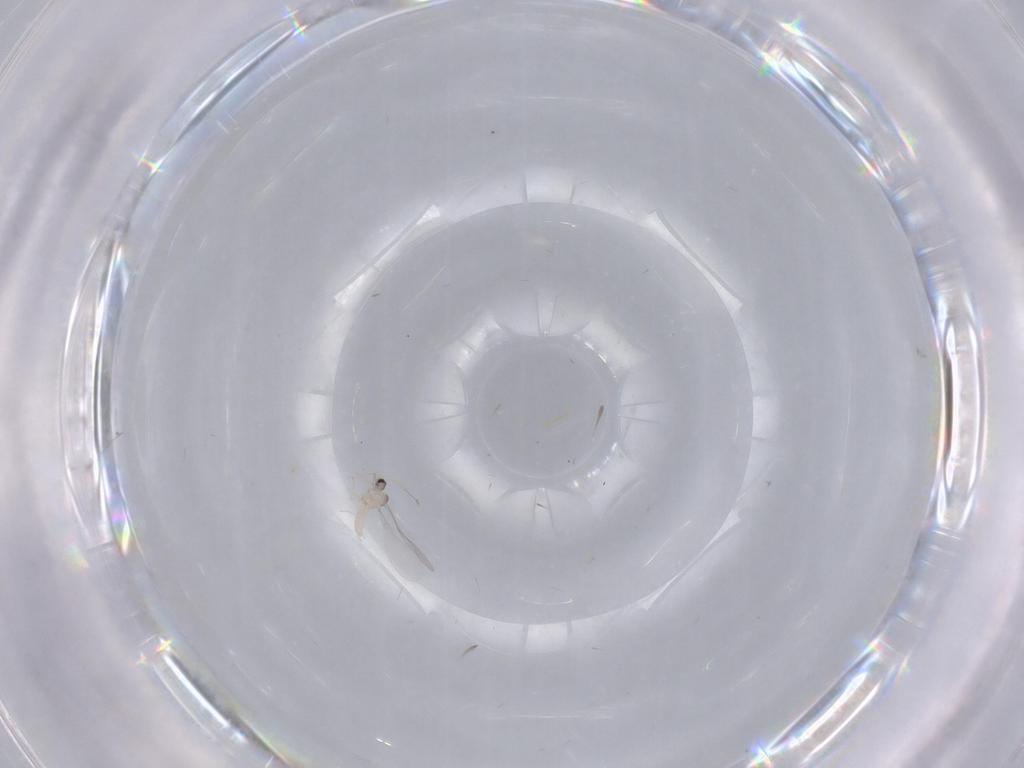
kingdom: Animalia
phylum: Arthropoda
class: Insecta
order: Diptera
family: Cecidomyiidae
